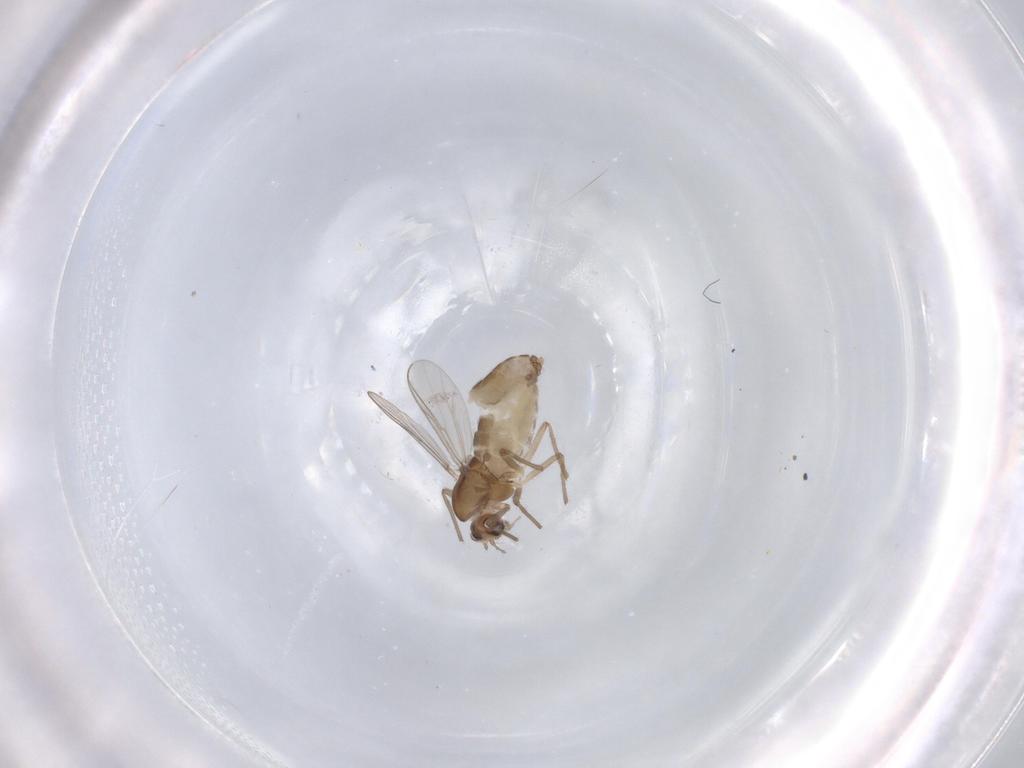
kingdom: Animalia
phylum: Arthropoda
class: Insecta
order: Diptera
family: Chironomidae
